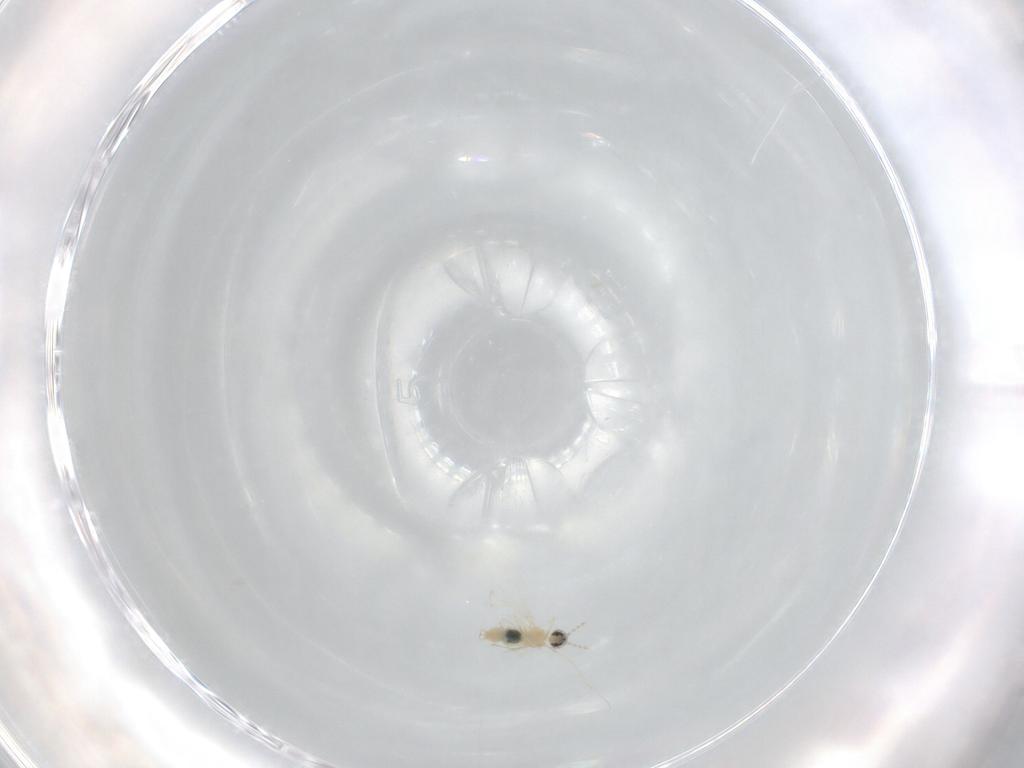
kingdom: Animalia
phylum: Arthropoda
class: Insecta
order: Diptera
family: Cecidomyiidae
